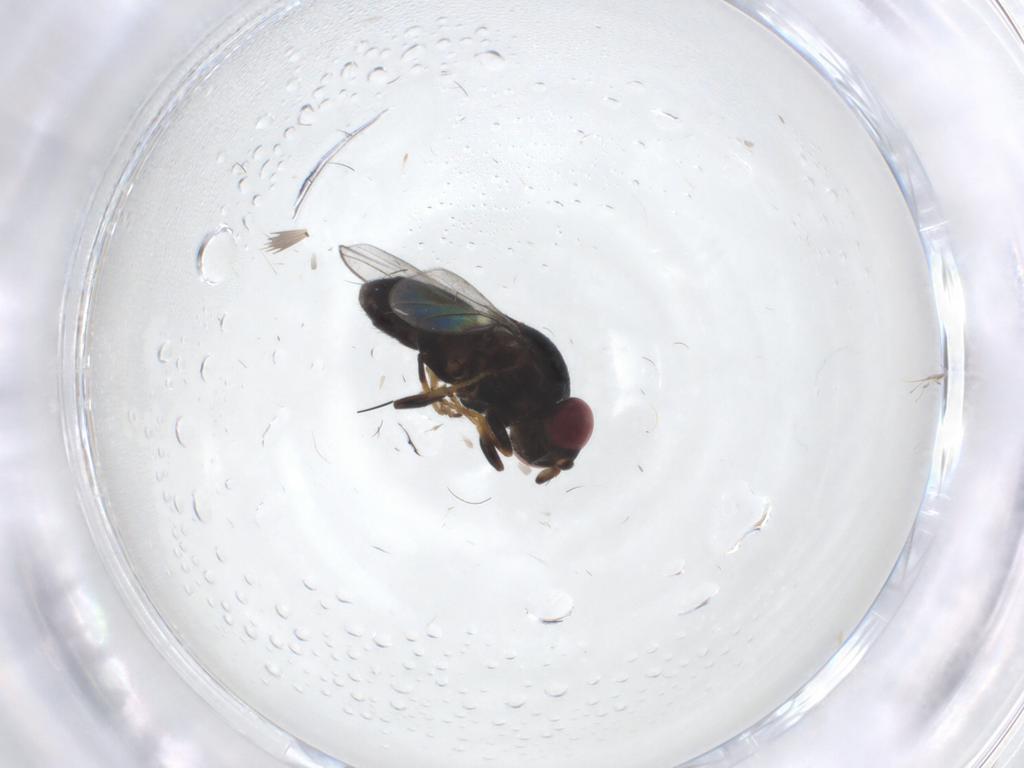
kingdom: Animalia
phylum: Arthropoda
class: Insecta
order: Diptera
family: Chloropidae
